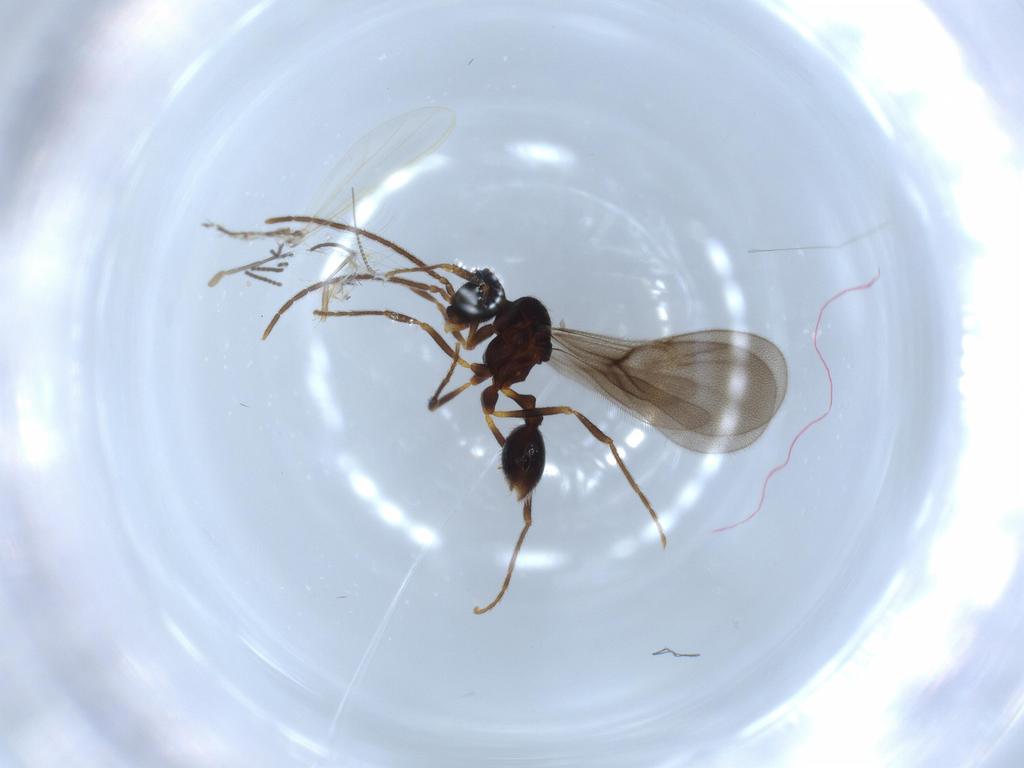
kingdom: Animalia
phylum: Arthropoda
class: Insecta
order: Hymenoptera
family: Formicidae
